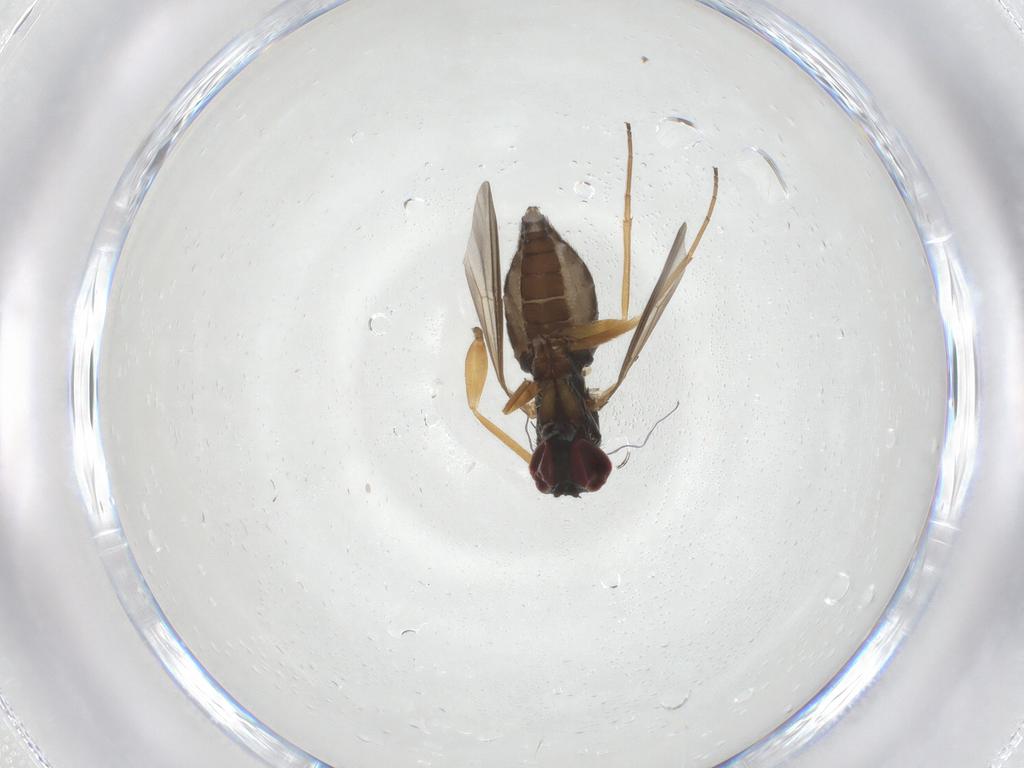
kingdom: Animalia
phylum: Arthropoda
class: Insecta
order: Diptera
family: Dolichopodidae
